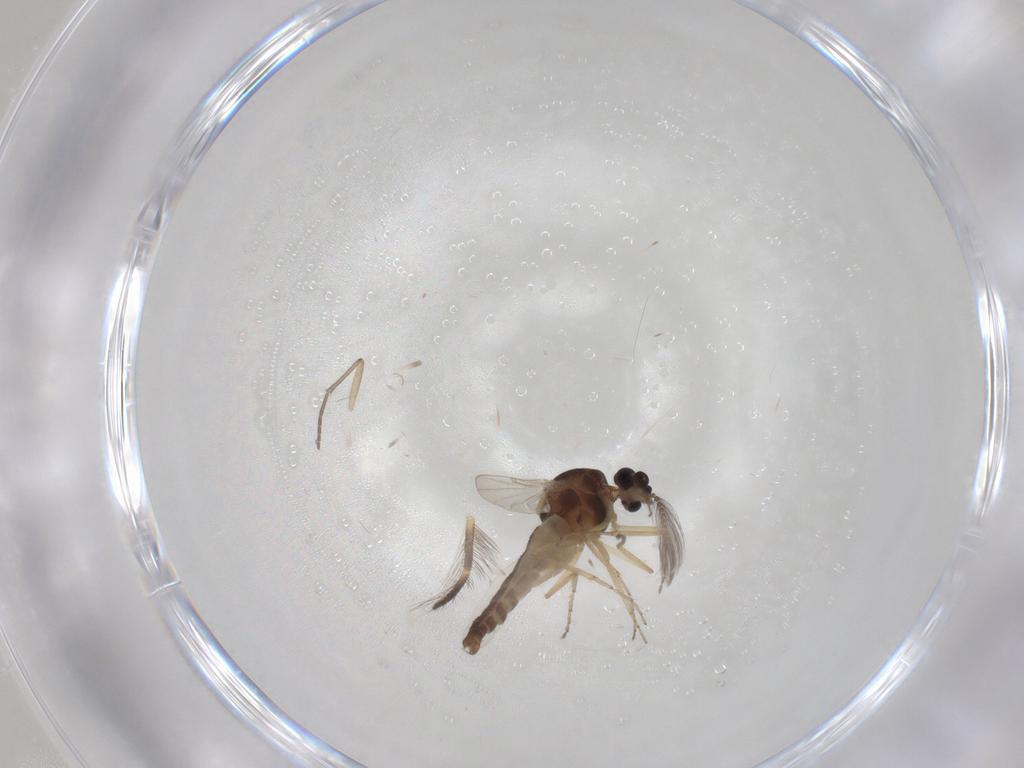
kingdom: Animalia
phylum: Arthropoda
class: Insecta
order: Diptera
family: Ceratopogonidae
